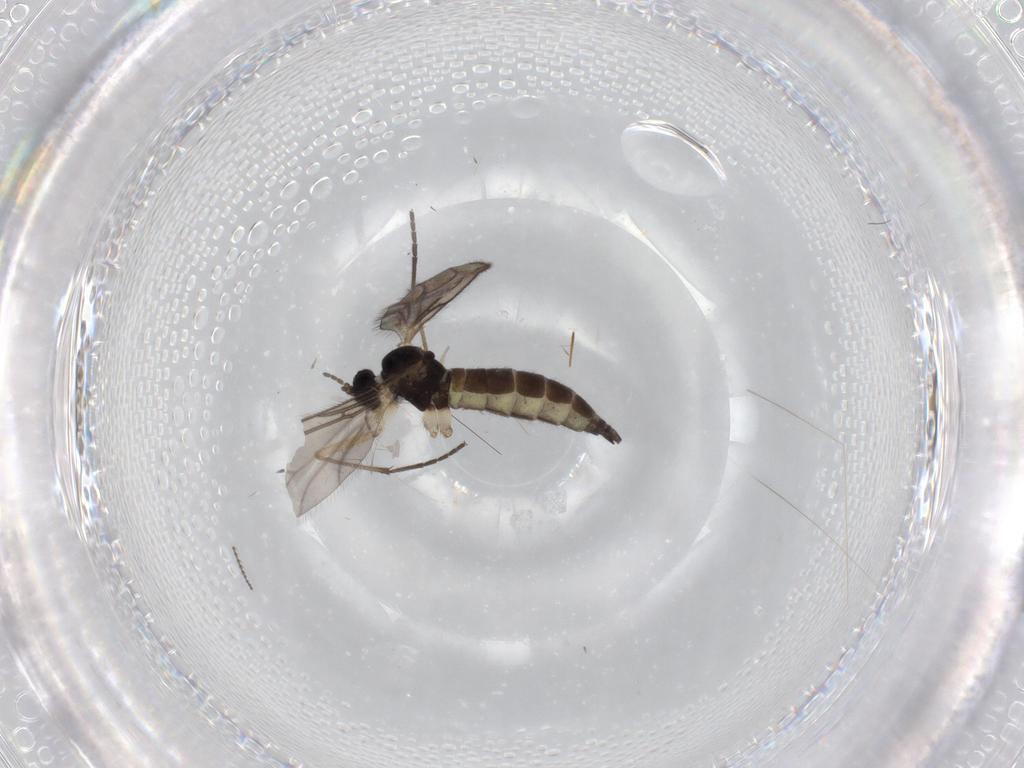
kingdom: Animalia
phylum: Arthropoda
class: Insecta
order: Diptera
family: Sciaridae
